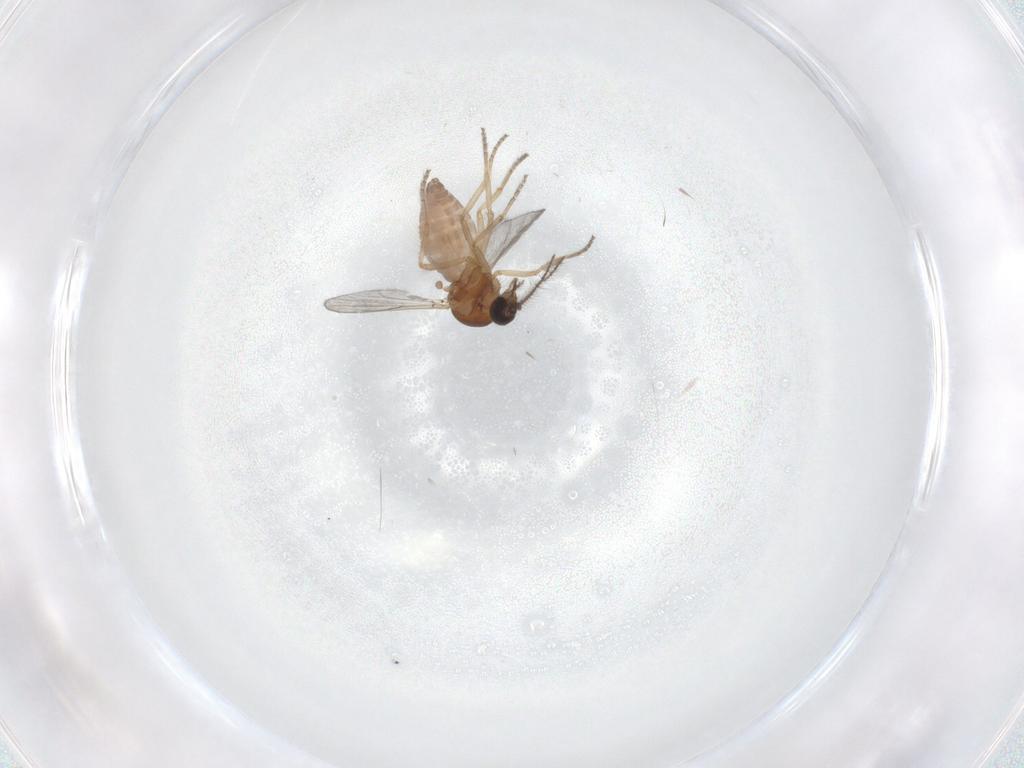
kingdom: Animalia
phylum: Arthropoda
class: Insecta
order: Diptera
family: Ceratopogonidae
